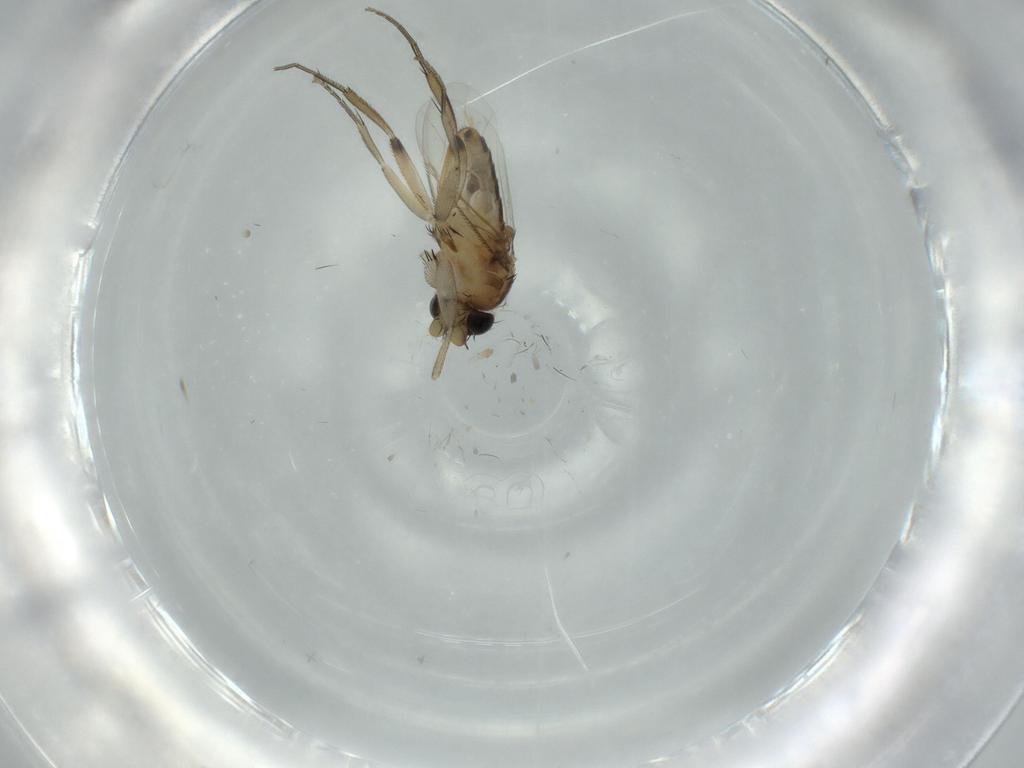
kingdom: Animalia
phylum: Arthropoda
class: Insecta
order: Diptera
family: Phoridae
